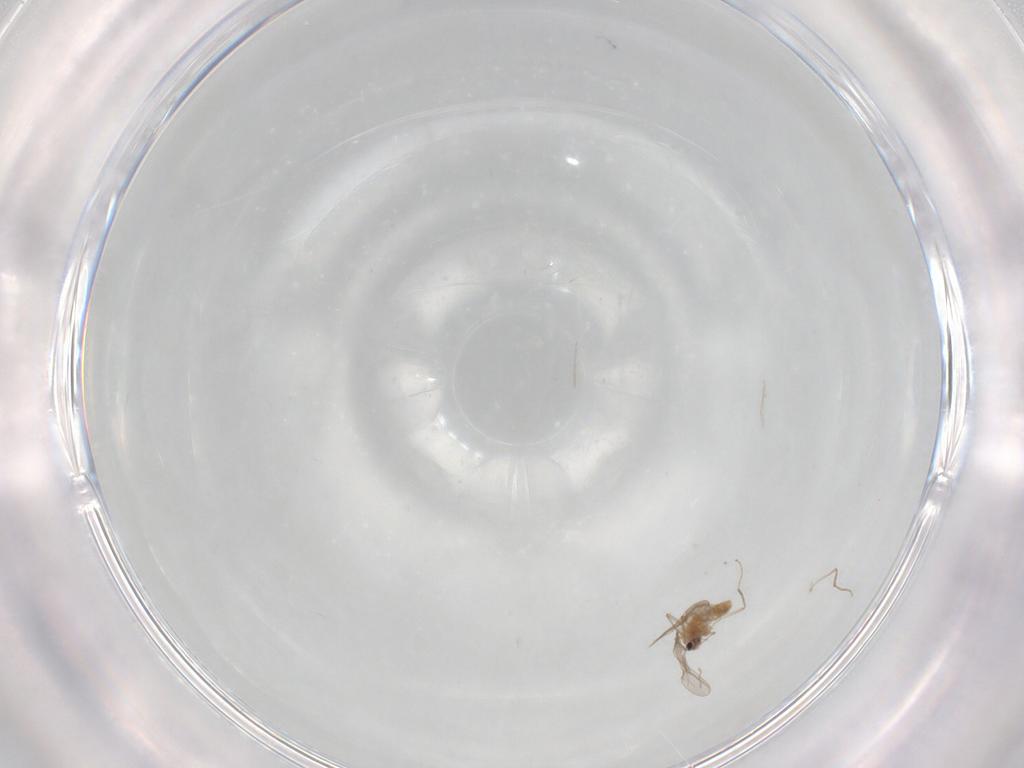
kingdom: Animalia
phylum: Arthropoda
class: Insecta
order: Diptera
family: Chironomidae
